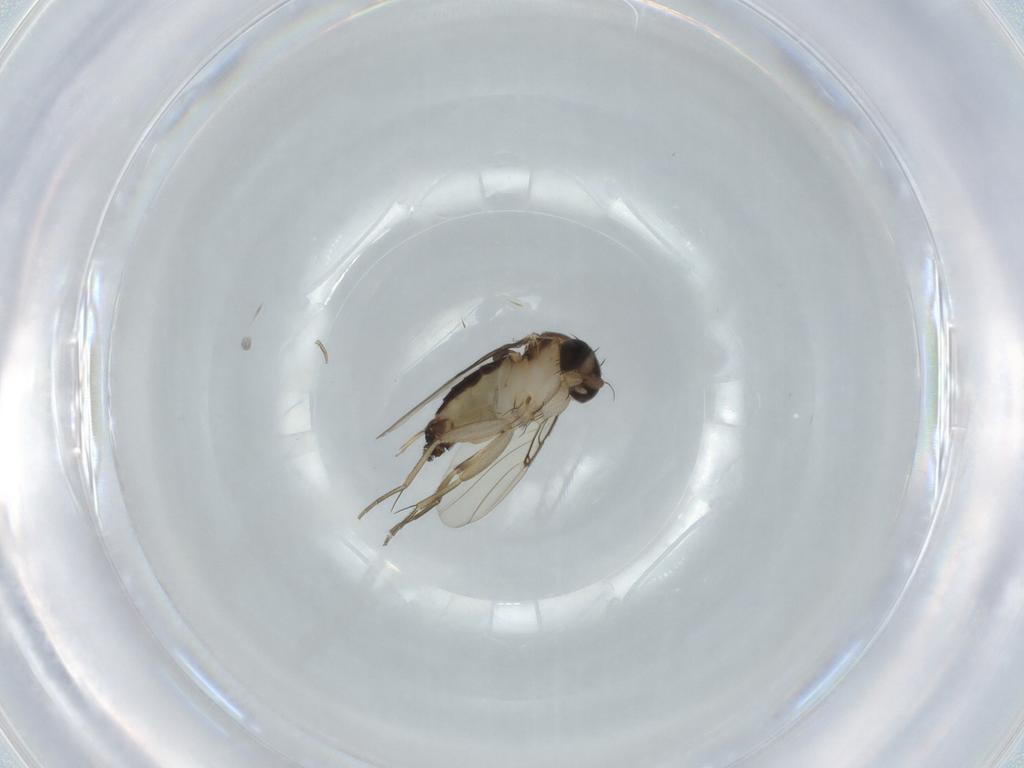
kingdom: Animalia
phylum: Arthropoda
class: Insecta
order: Diptera
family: Phoridae
